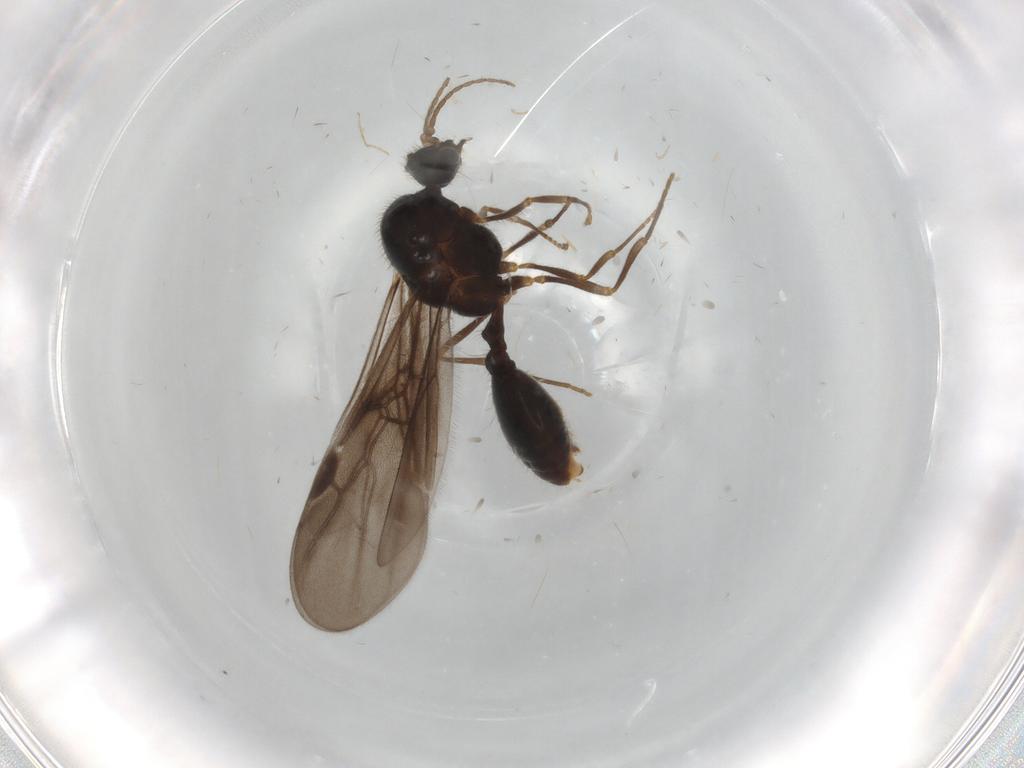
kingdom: Animalia
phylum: Arthropoda
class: Insecta
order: Hymenoptera
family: Formicidae
